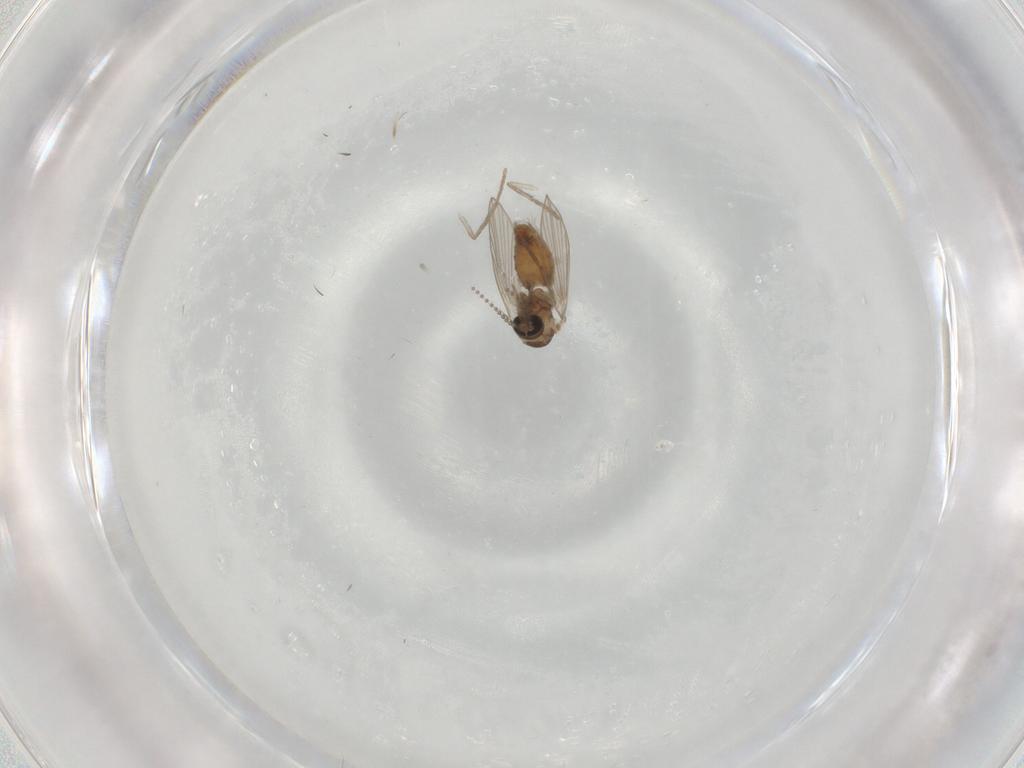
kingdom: Animalia
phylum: Arthropoda
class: Insecta
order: Diptera
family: Psychodidae
